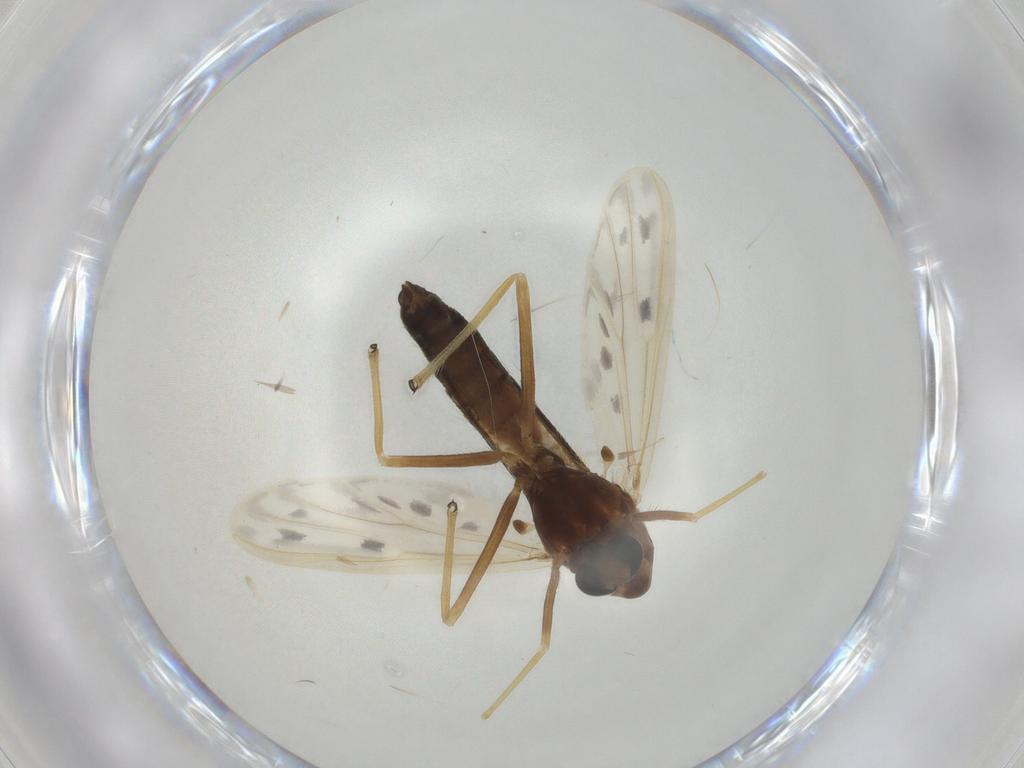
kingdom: Animalia
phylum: Arthropoda
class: Insecta
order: Diptera
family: Chironomidae
